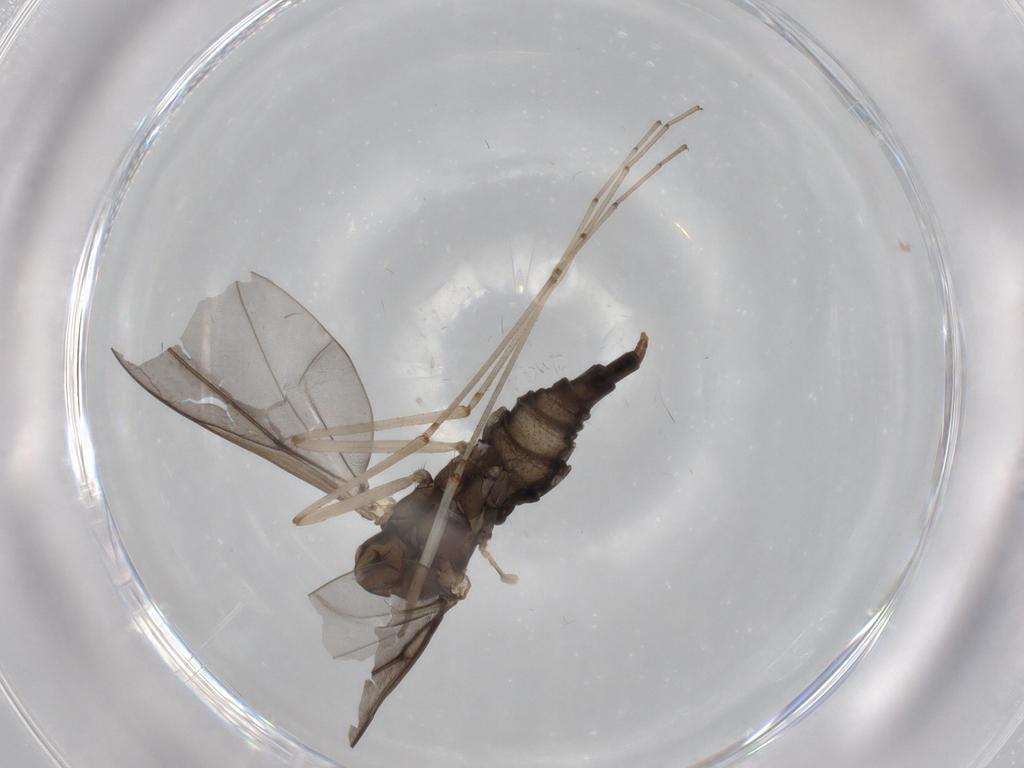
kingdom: Animalia
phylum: Arthropoda
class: Insecta
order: Diptera
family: Cecidomyiidae
